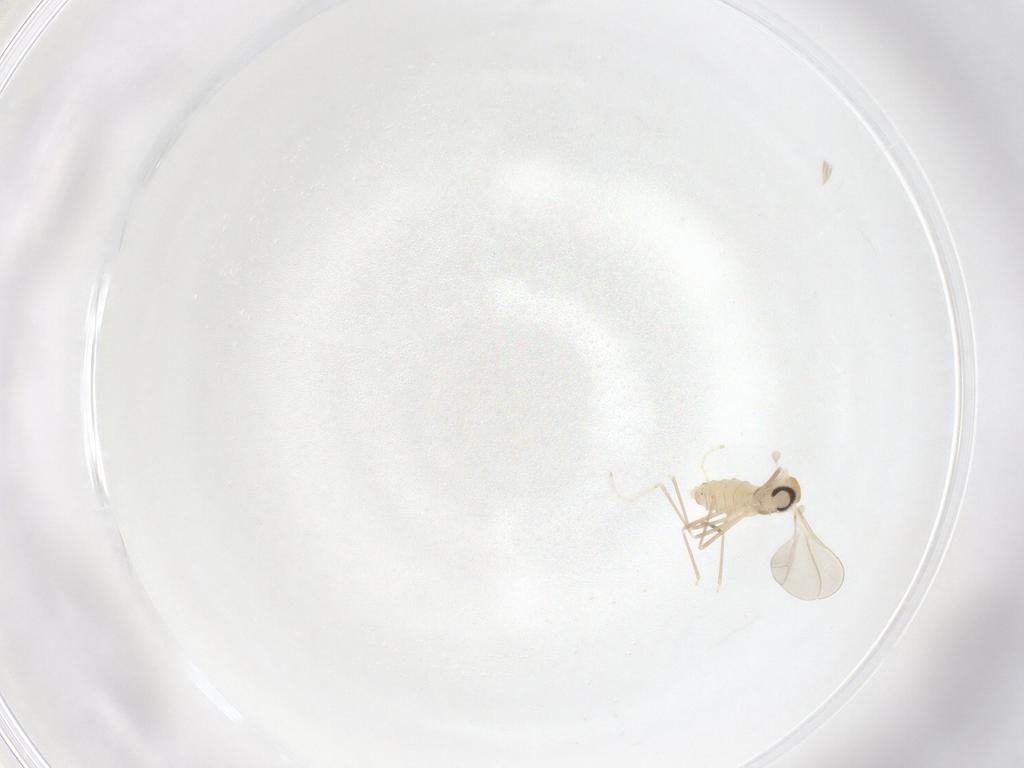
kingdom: Animalia
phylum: Arthropoda
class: Insecta
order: Diptera
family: Cecidomyiidae
